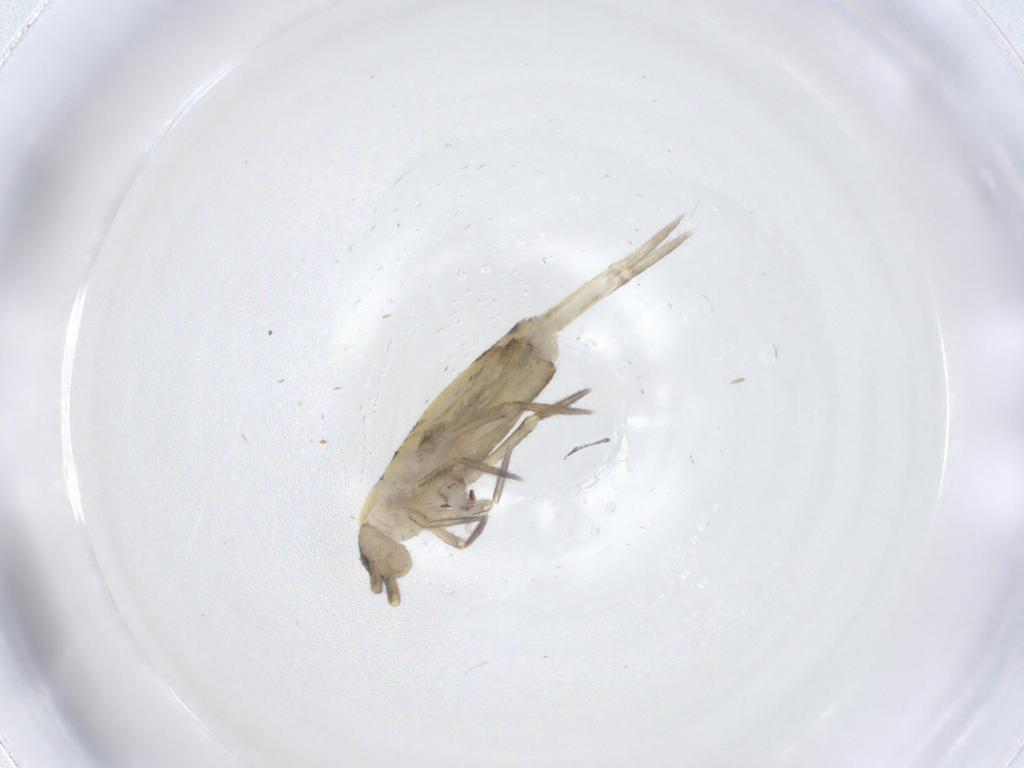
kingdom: Animalia
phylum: Arthropoda
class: Collembola
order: Entomobryomorpha
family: Entomobryidae
